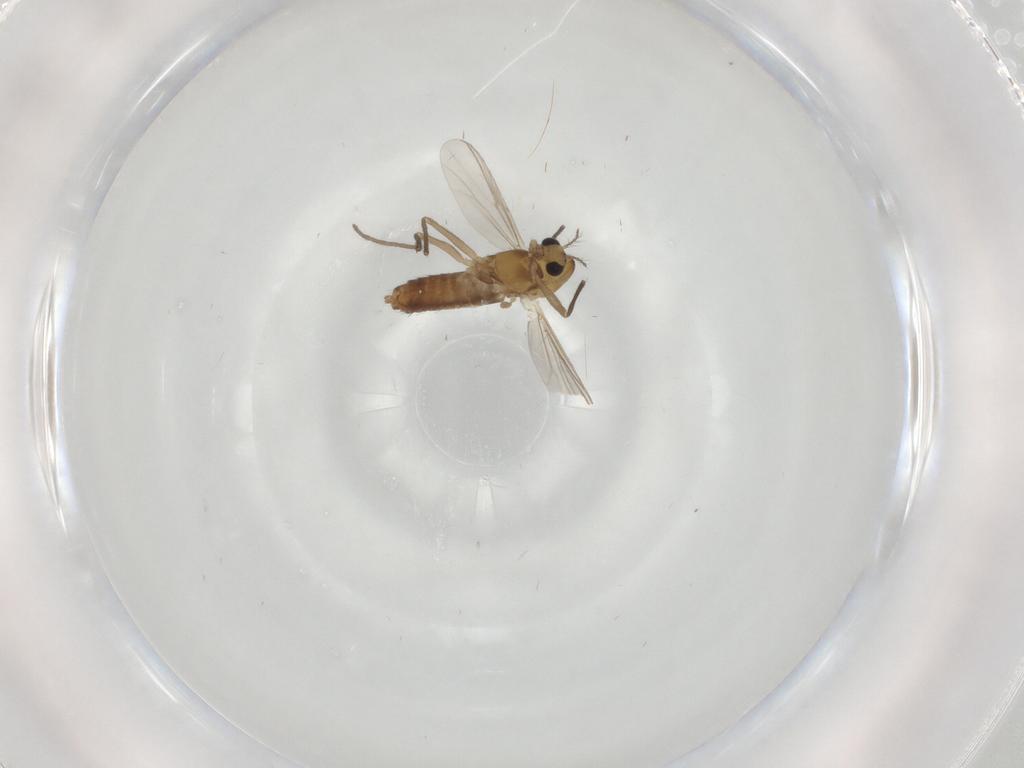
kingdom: Animalia
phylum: Arthropoda
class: Insecta
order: Diptera
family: Chironomidae
